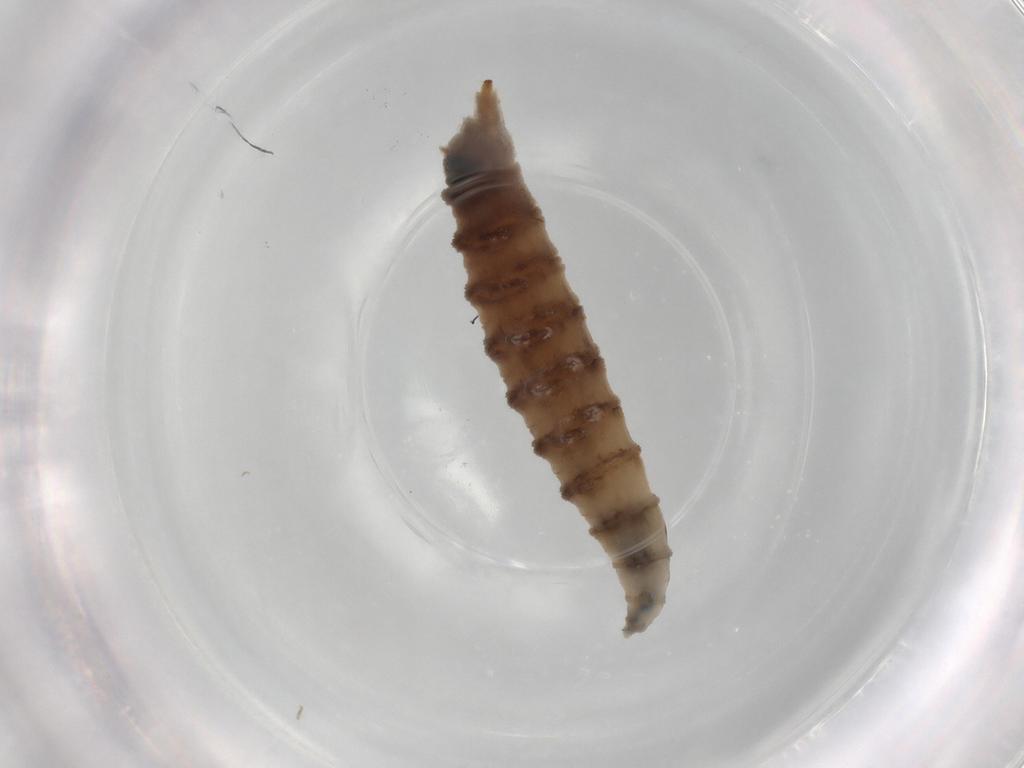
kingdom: Animalia
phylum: Arthropoda
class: Insecta
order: Diptera
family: Drosophilidae
